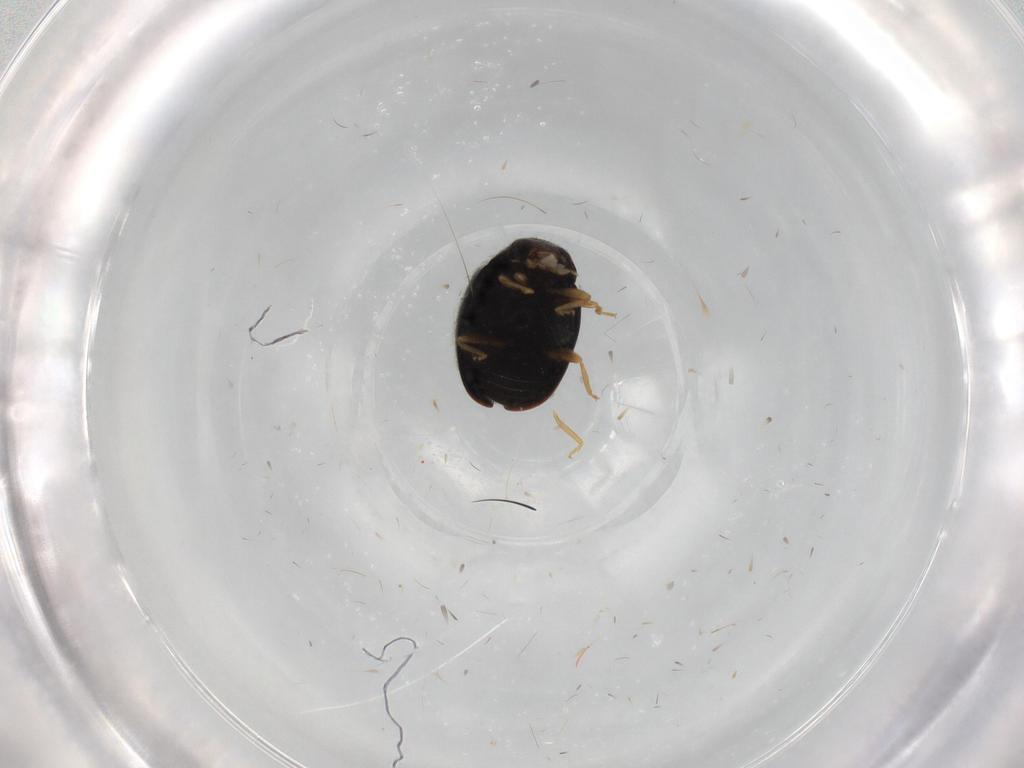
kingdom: Animalia
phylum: Arthropoda
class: Insecta
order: Coleoptera
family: Coccinellidae
